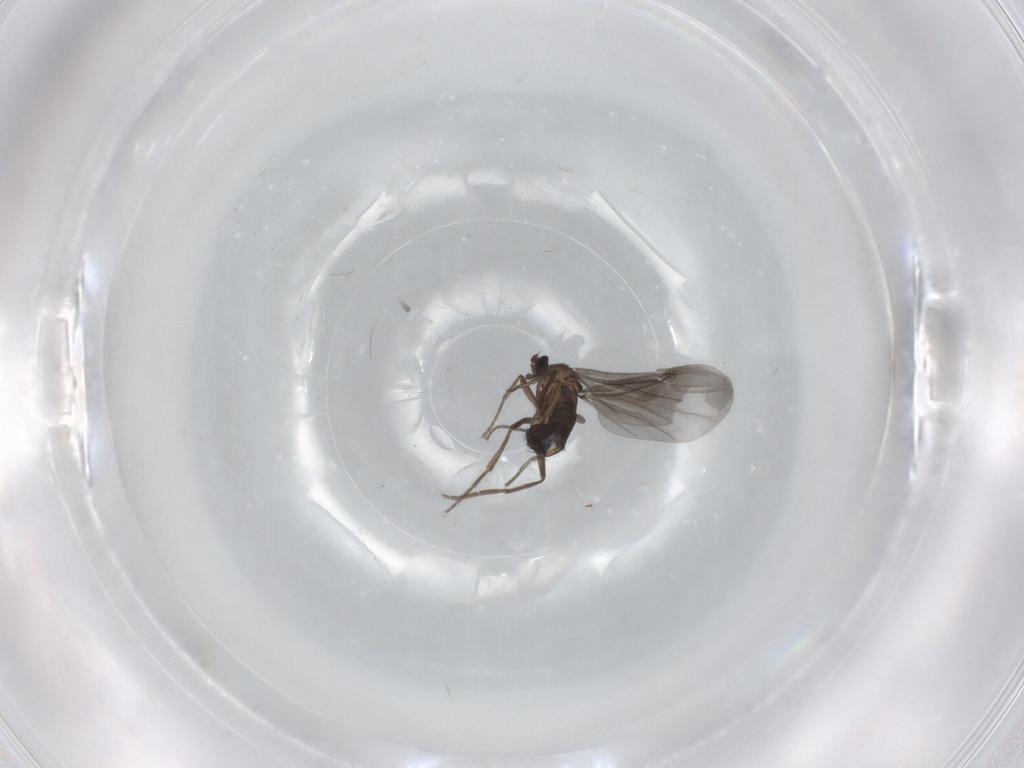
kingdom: Animalia
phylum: Arthropoda
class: Insecta
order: Diptera
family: Phoridae
